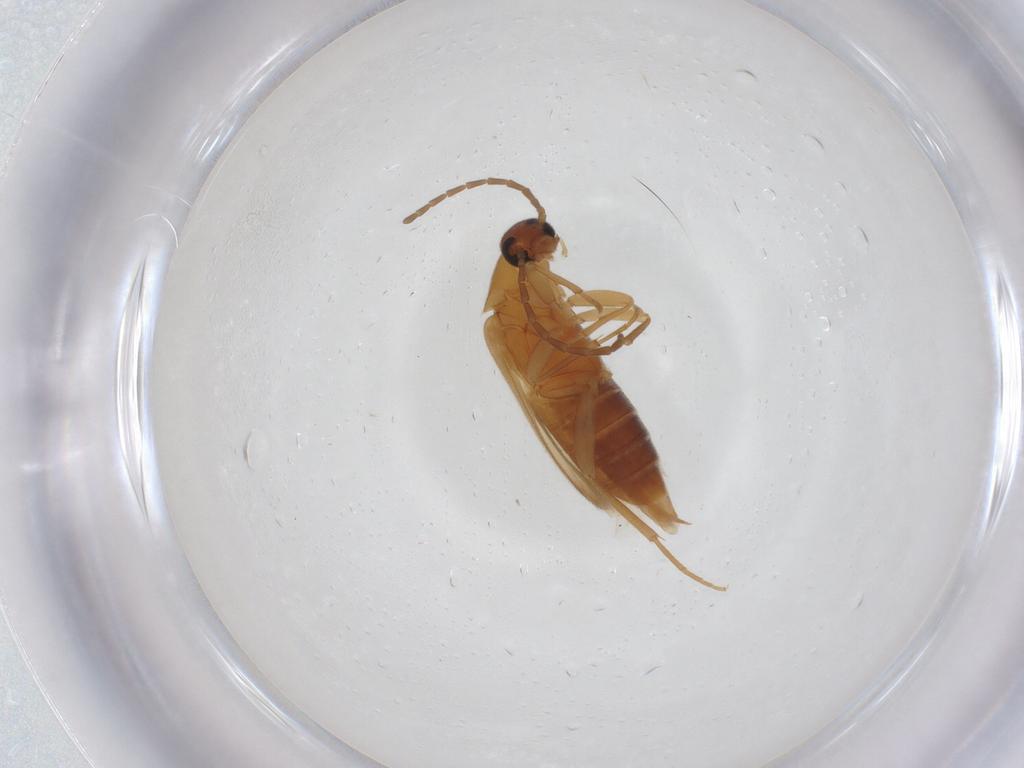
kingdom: Animalia
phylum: Arthropoda
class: Insecta
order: Coleoptera
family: Scraptiidae
